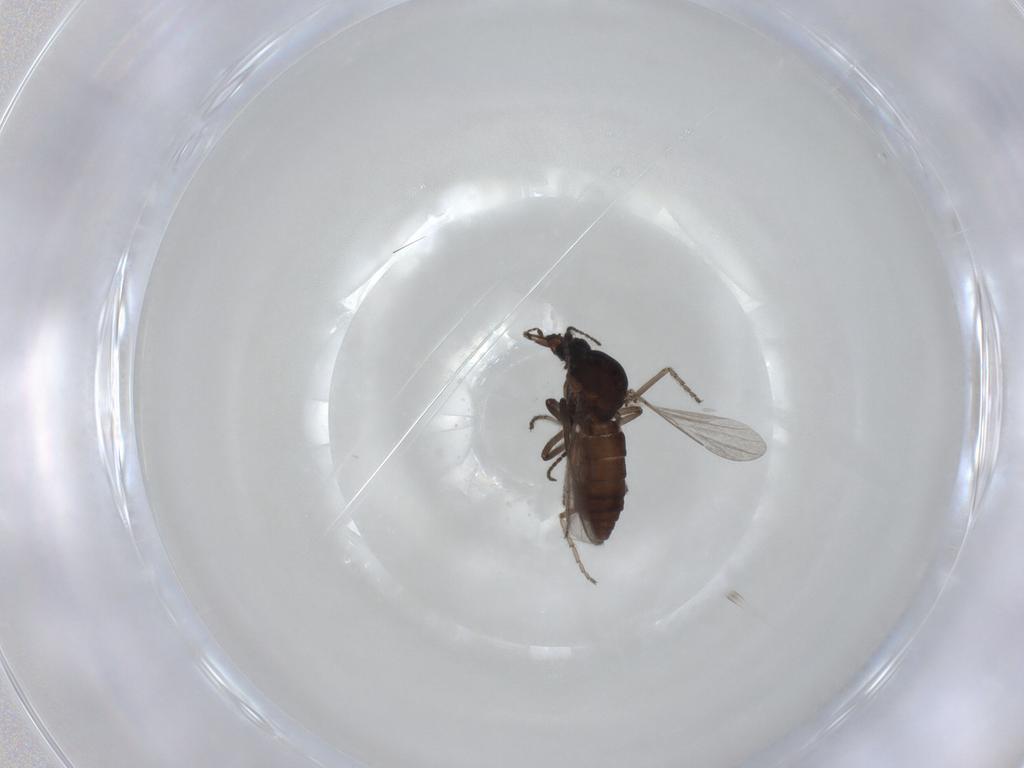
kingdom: Animalia
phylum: Arthropoda
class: Insecta
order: Diptera
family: Ceratopogonidae
